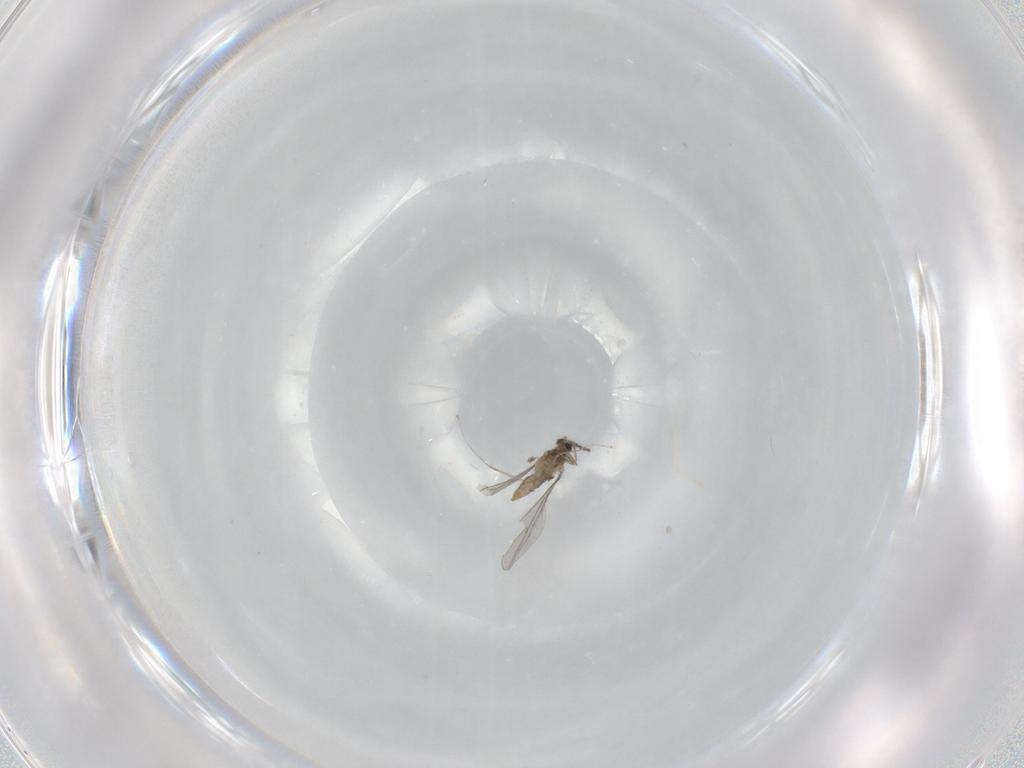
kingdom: Animalia
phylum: Arthropoda
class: Insecta
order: Diptera
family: Cecidomyiidae
